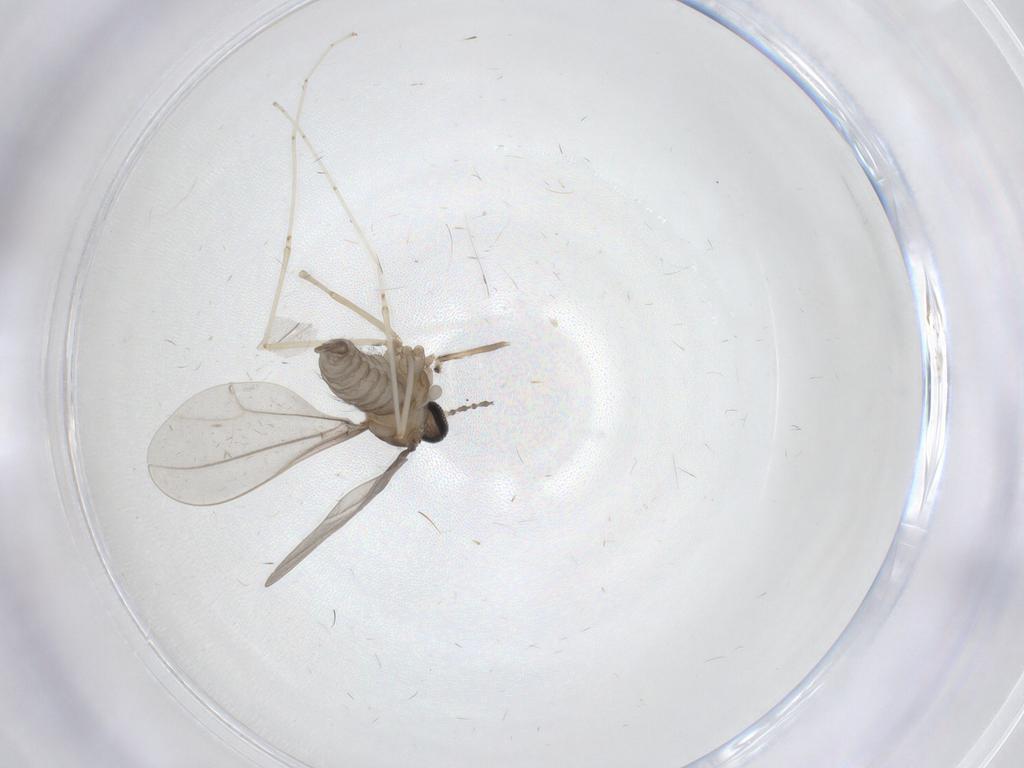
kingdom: Animalia
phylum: Arthropoda
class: Insecta
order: Diptera
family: Cecidomyiidae
